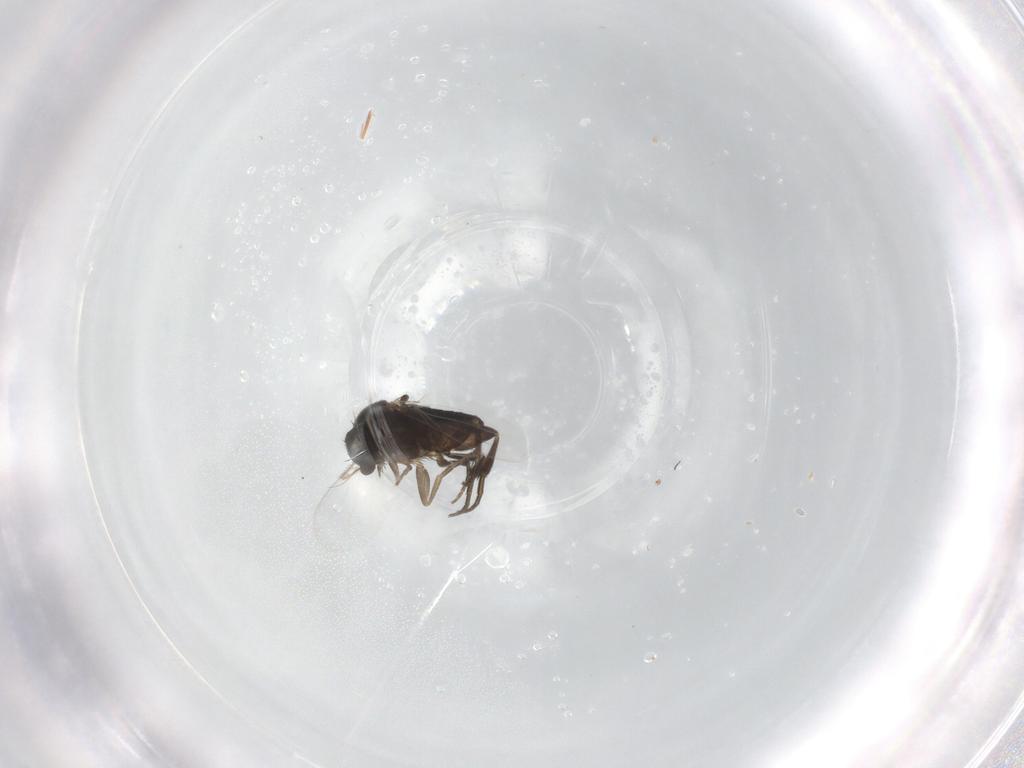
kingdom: Animalia
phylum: Arthropoda
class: Insecta
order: Diptera
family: Phoridae
